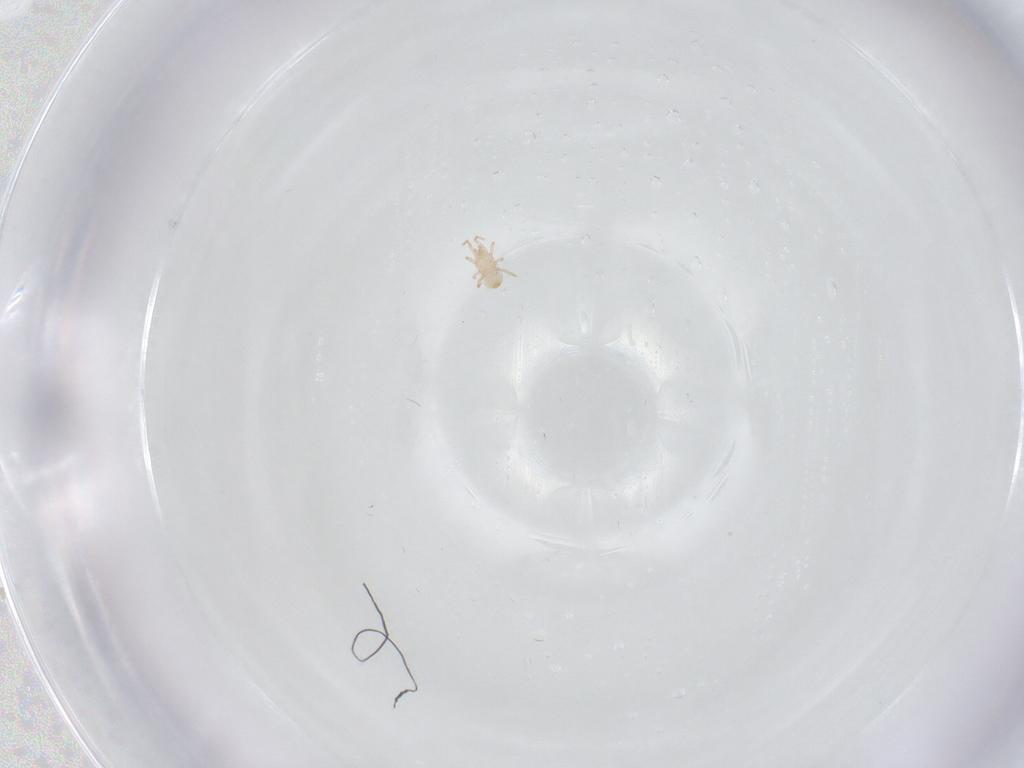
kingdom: Animalia
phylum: Arthropoda
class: Arachnida
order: Mesostigmata
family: Ascidae
